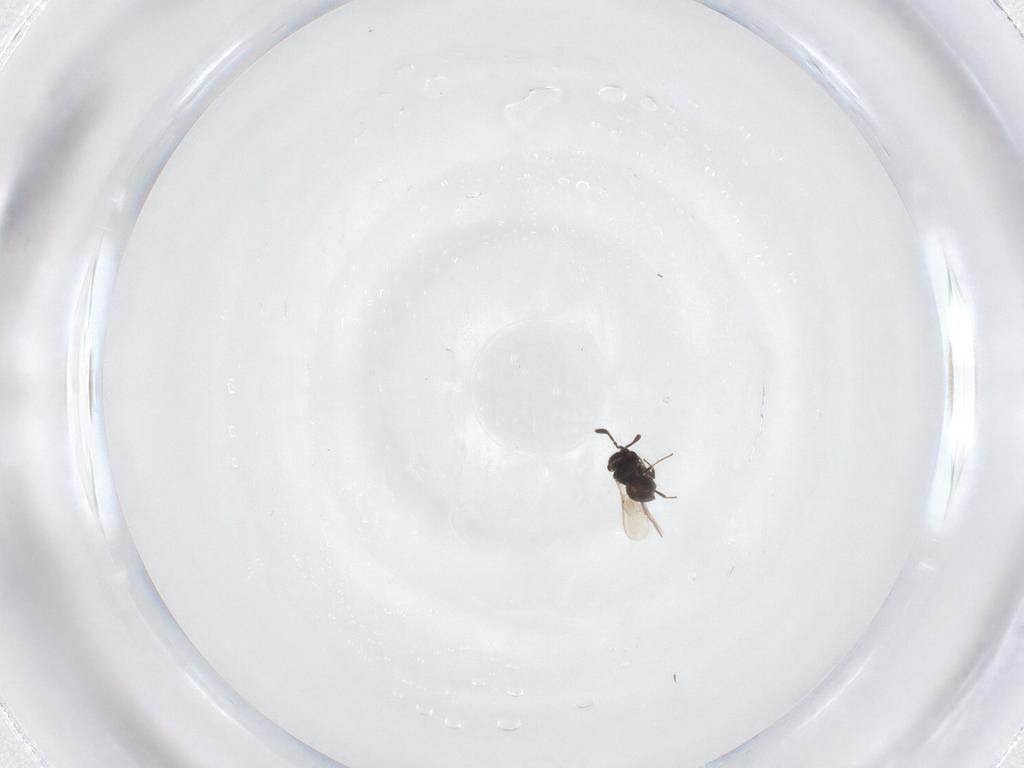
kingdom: Animalia
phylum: Arthropoda
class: Insecta
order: Hymenoptera
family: Scelionidae
